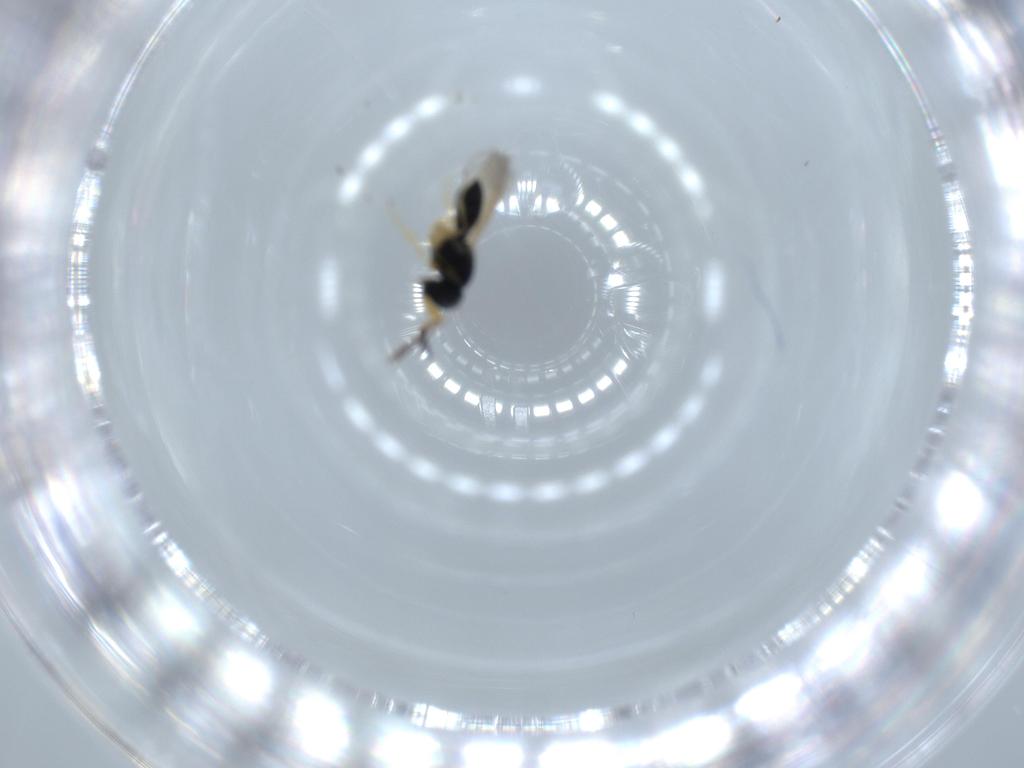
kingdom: Animalia
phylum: Arthropoda
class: Insecta
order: Hymenoptera
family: Scelionidae
